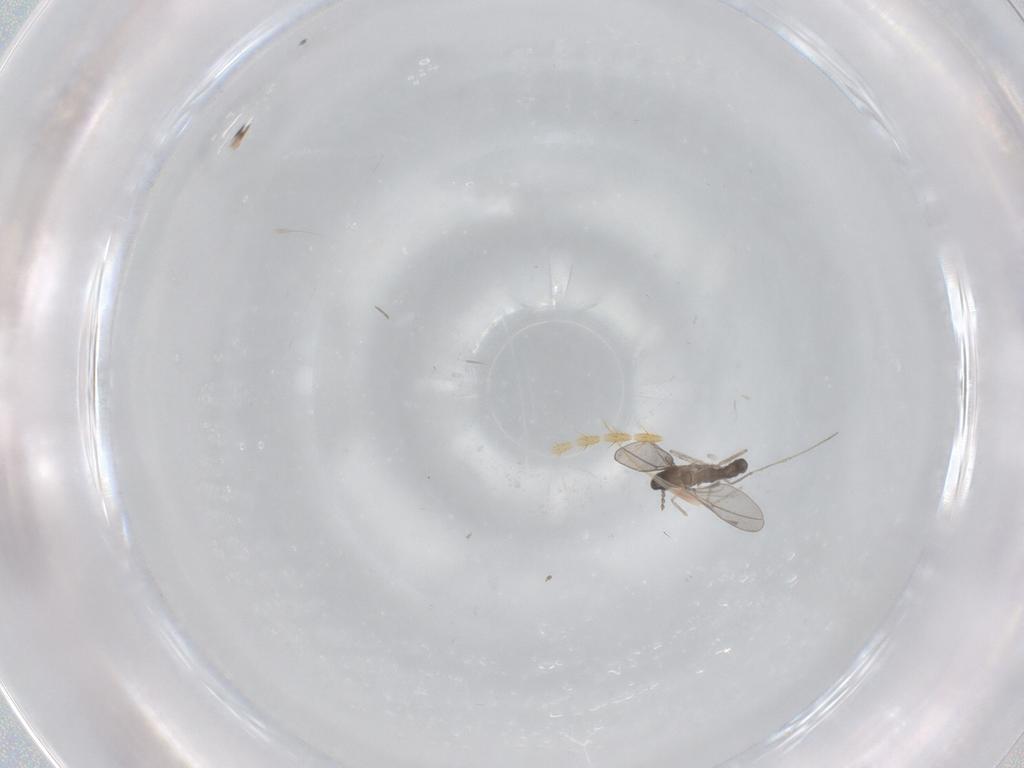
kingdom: Animalia
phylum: Arthropoda
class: Insecta
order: Diptera
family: Cecidomyiidae
